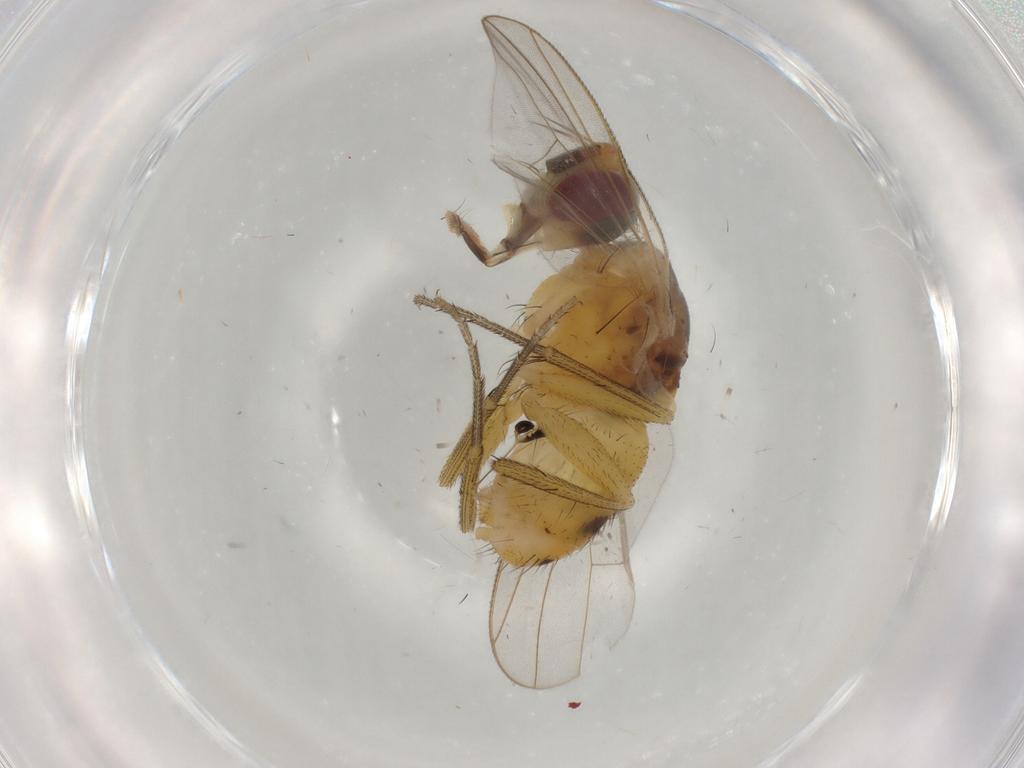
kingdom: Animalia
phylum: Arthropoda
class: Insecta
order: Diptera
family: Muscidae
